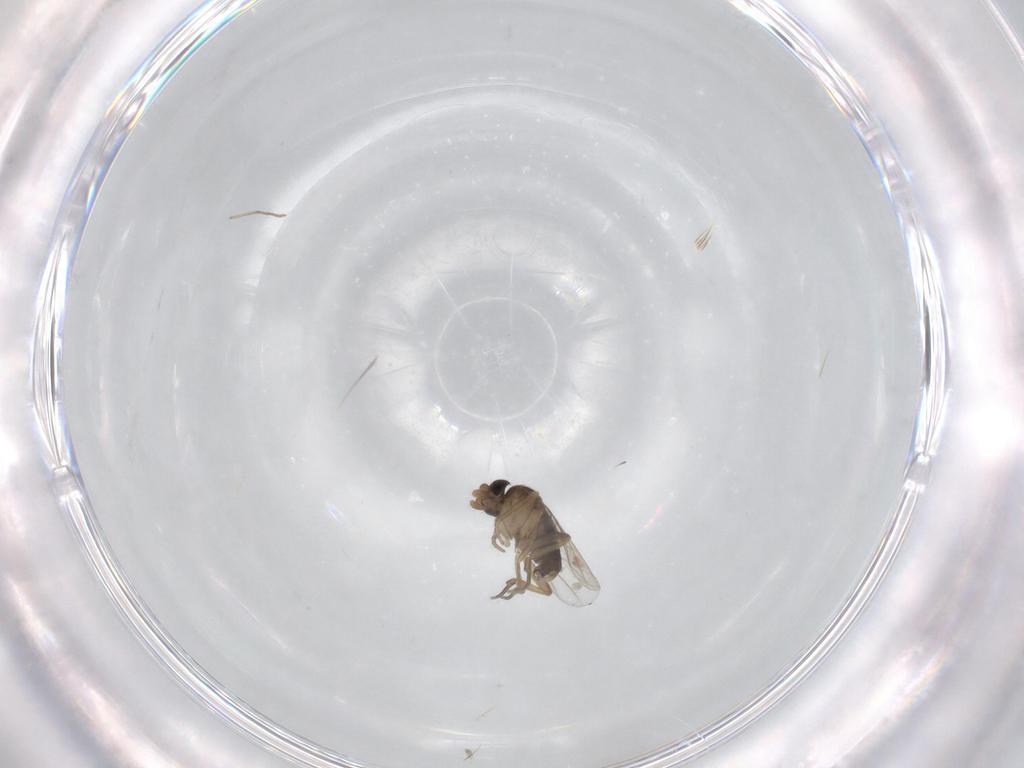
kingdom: Animalia
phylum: Arthropoda
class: Insecta
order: Diptera
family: Phoridae
